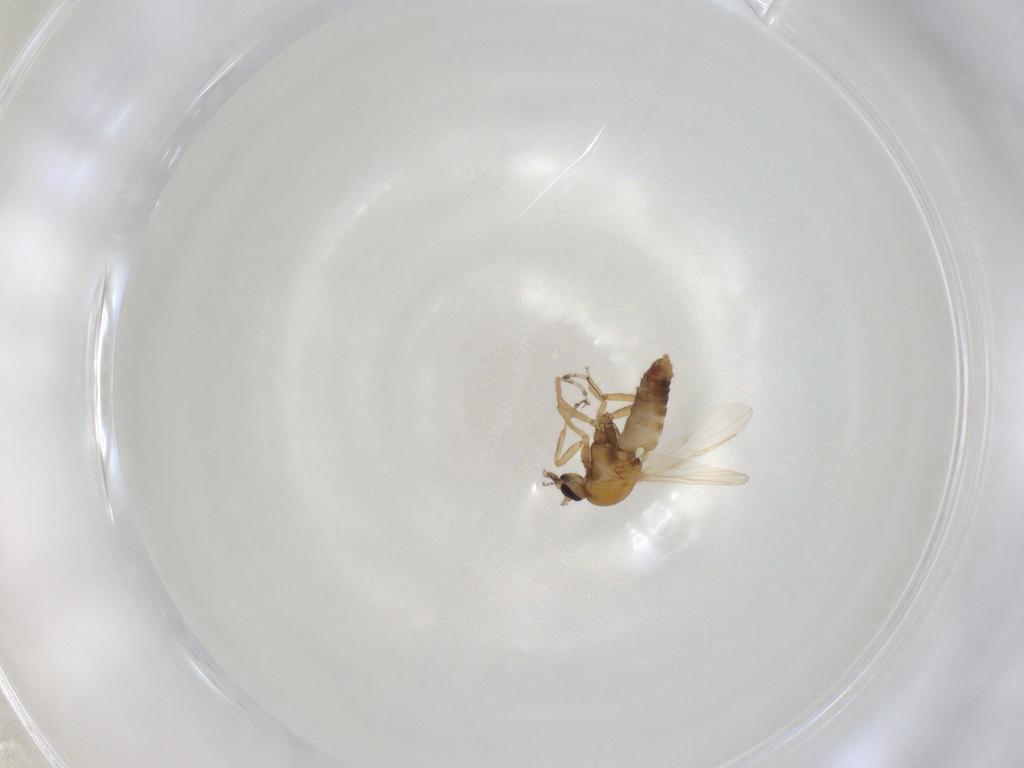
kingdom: Animalia
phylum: Arthropoda
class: Insecta
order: Diptera
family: Ceratopogonidae
